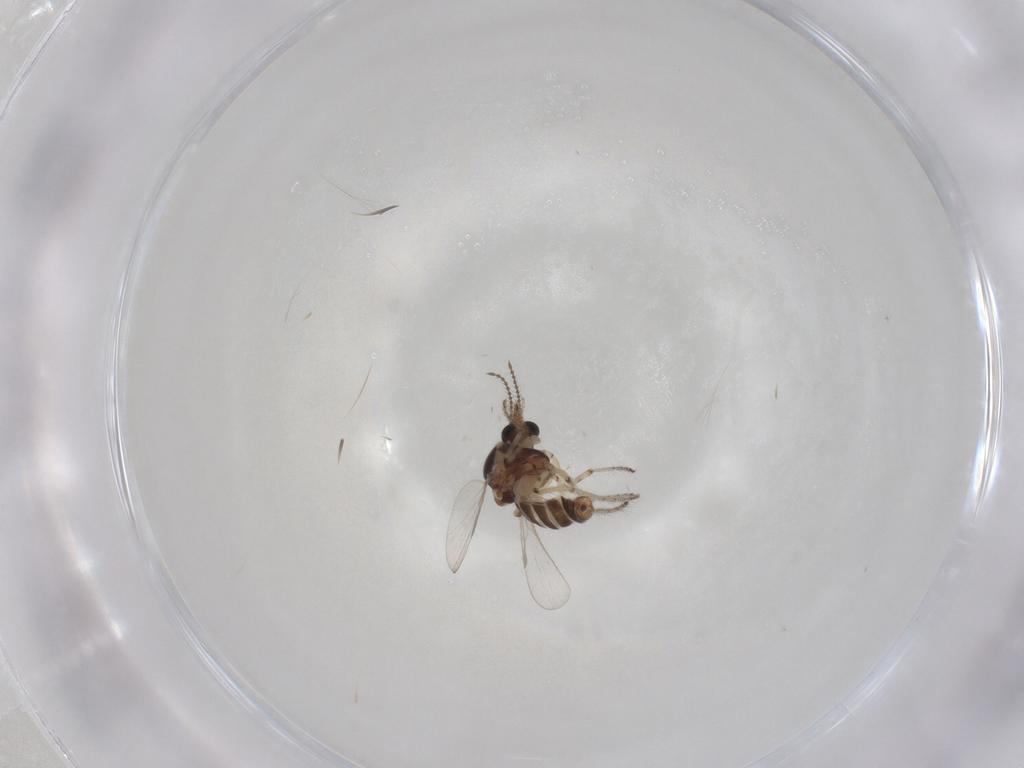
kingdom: Animalia
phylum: Arthropoda
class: Insecta
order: Diptera
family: Ceratopogonidae
